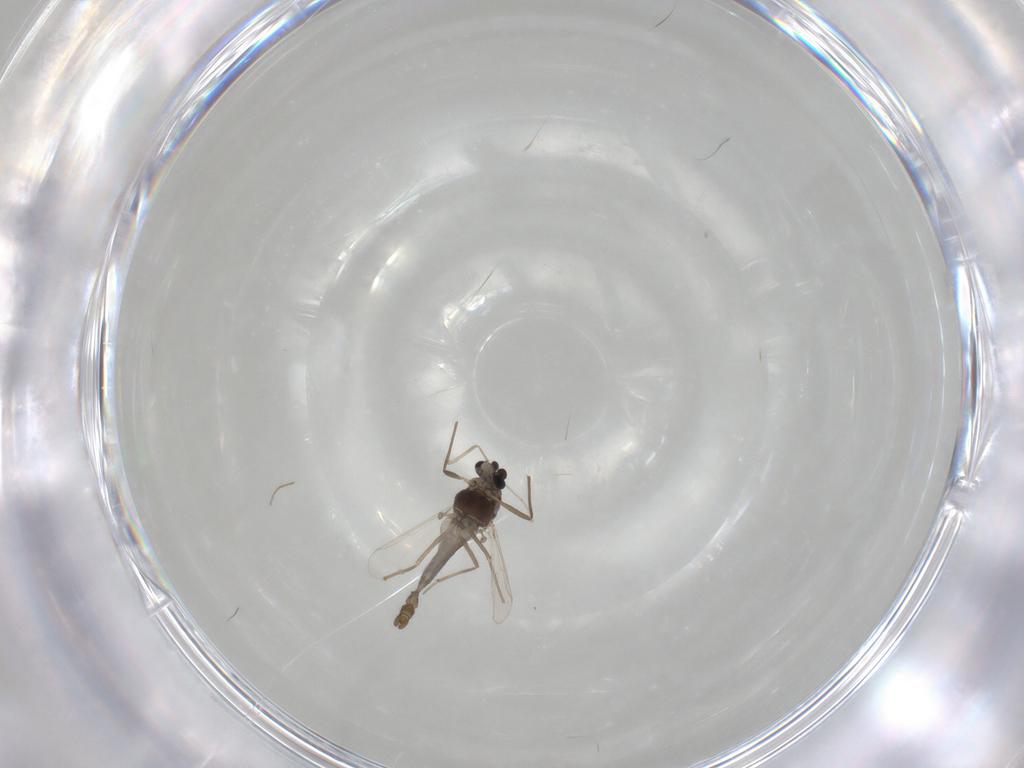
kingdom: Animalia
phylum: Arthropoda
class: Insecta
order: Diptera
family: Chironomidae
